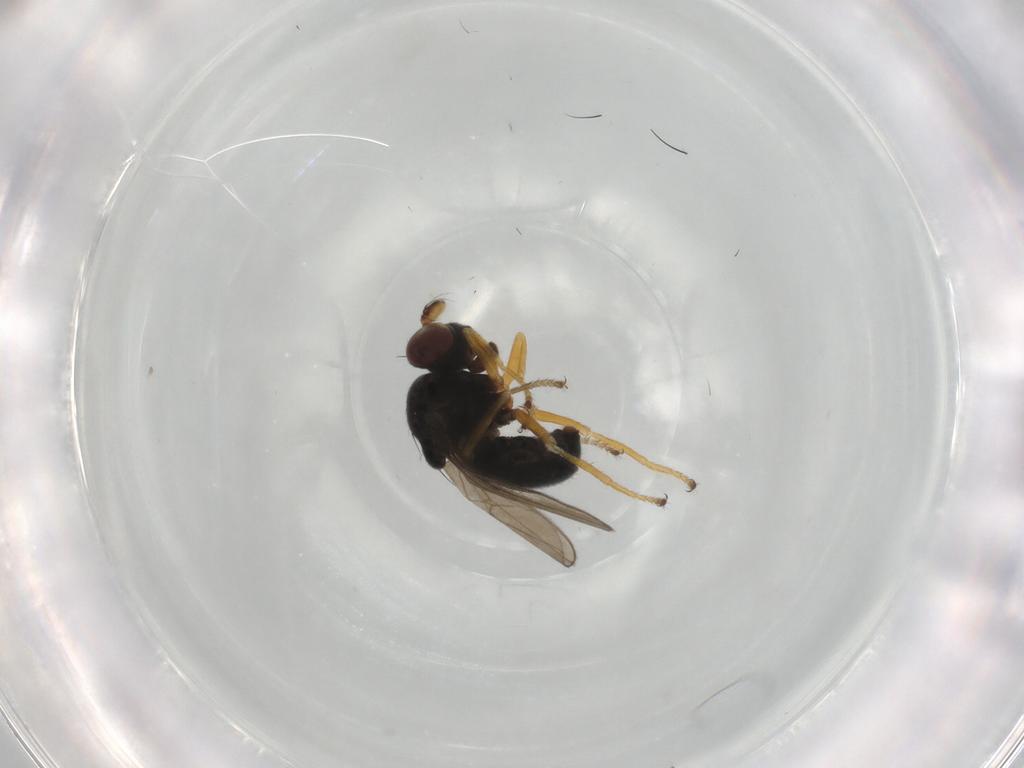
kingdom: Animalia
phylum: Arthropoda
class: Insecta
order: Diptera
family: Ephydridae
